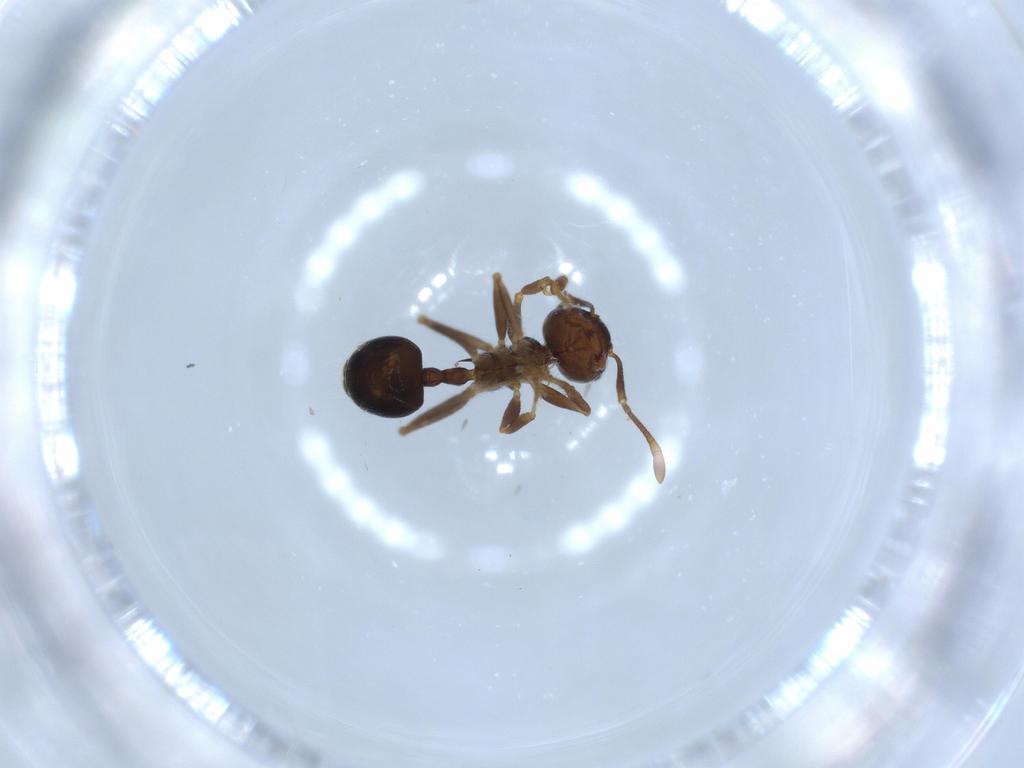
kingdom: Animalia
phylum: Arthropoda
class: Insecta
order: Hymenoptera
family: Formicidae
